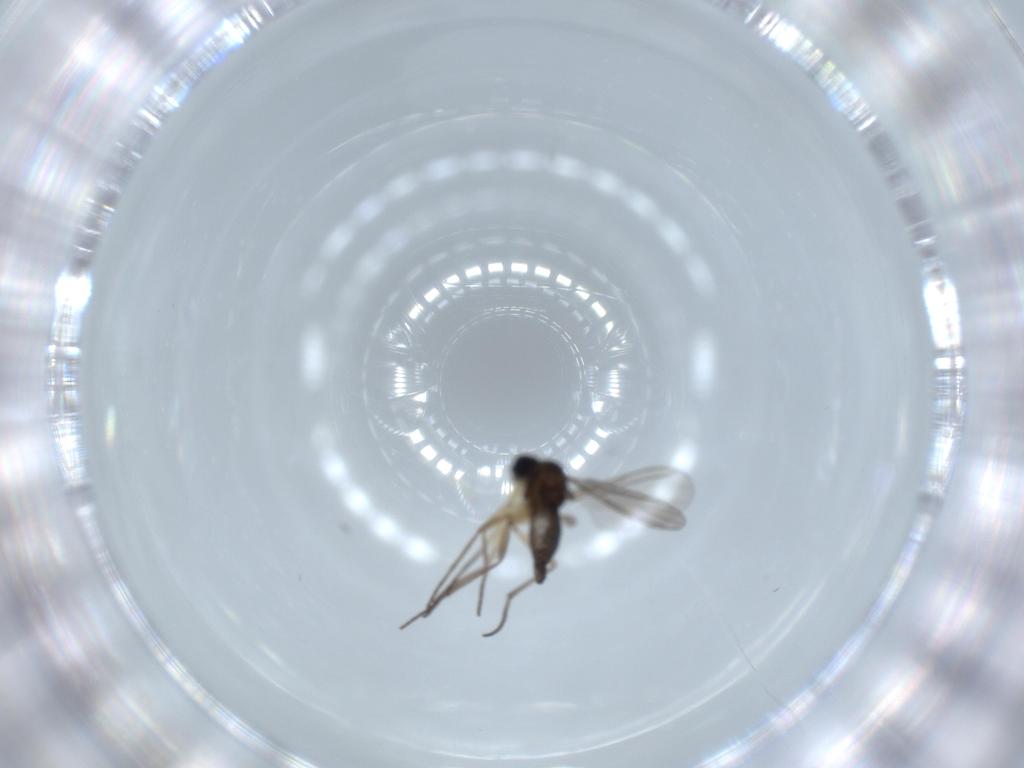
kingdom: Animalia
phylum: Arthropoda
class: Insecta
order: Diptera
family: Sciaridae
